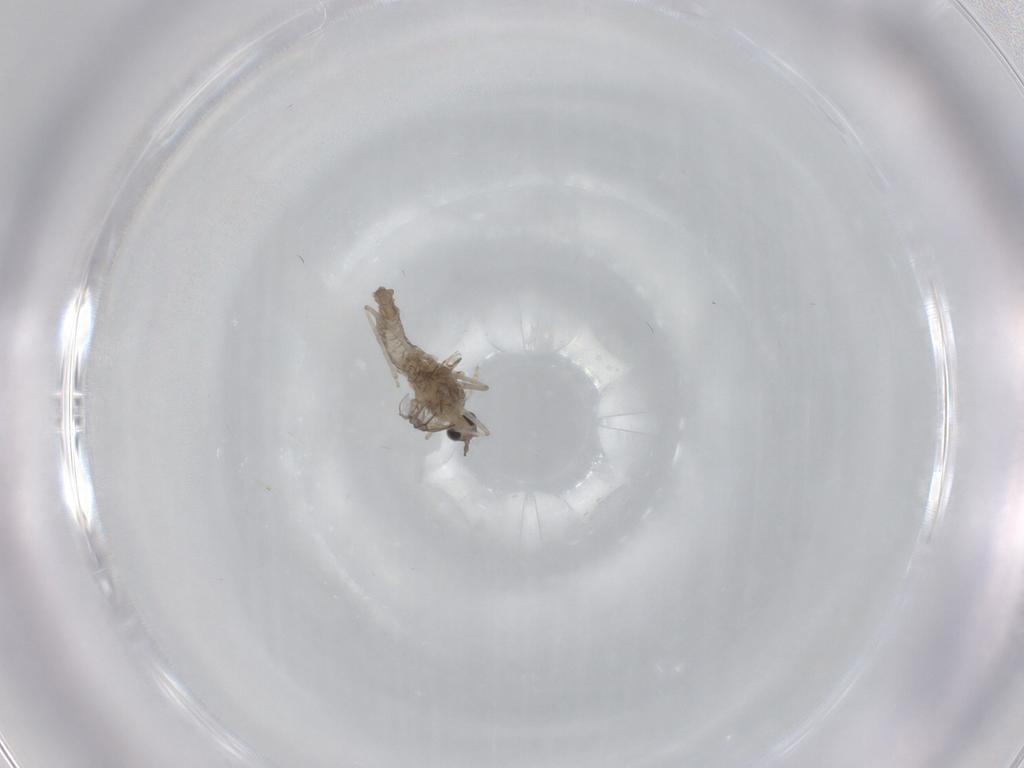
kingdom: Animalia
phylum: Arthropoda
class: Insecta
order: Diptera
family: Cecidomyiidae
